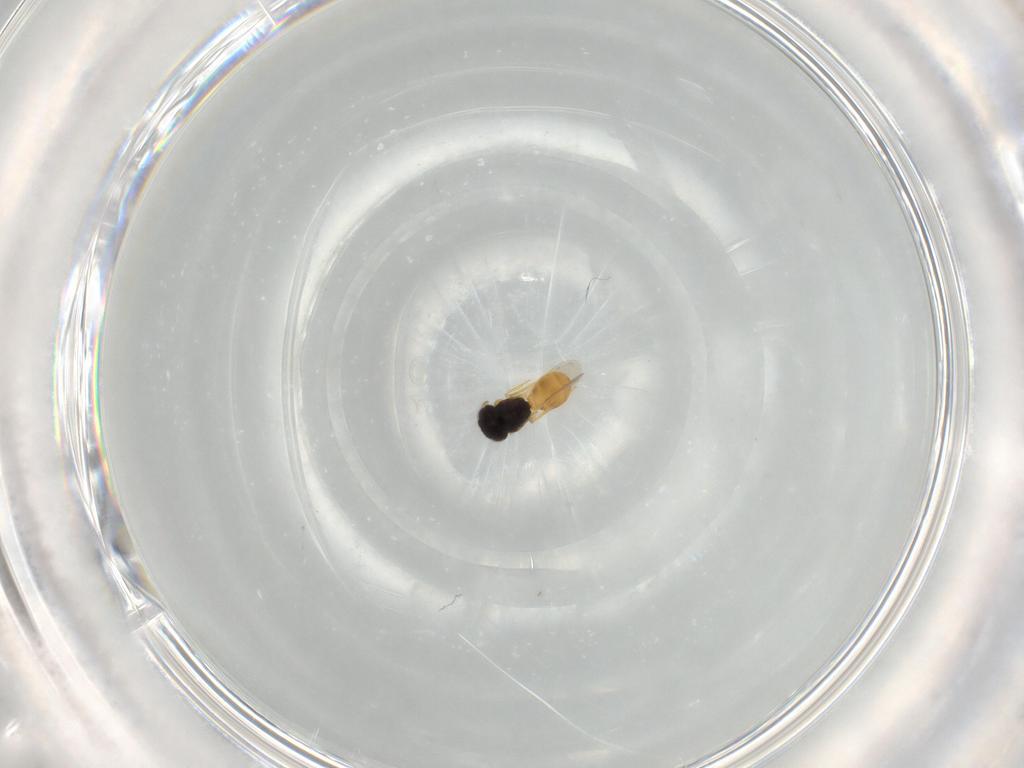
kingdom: Animalia
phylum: Arthropoda
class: Insecta
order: Hymenoptera
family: Scelionidae
